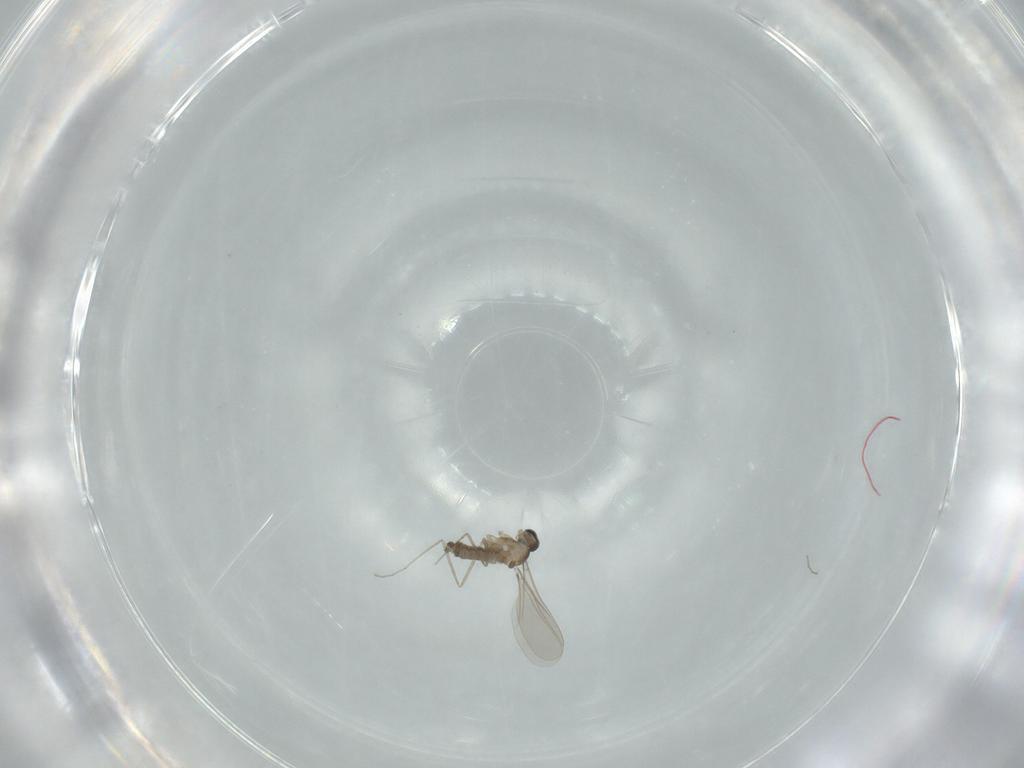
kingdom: Animalia
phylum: Arthropoda
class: Insecta
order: Diptera
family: Cecidomyiidae
